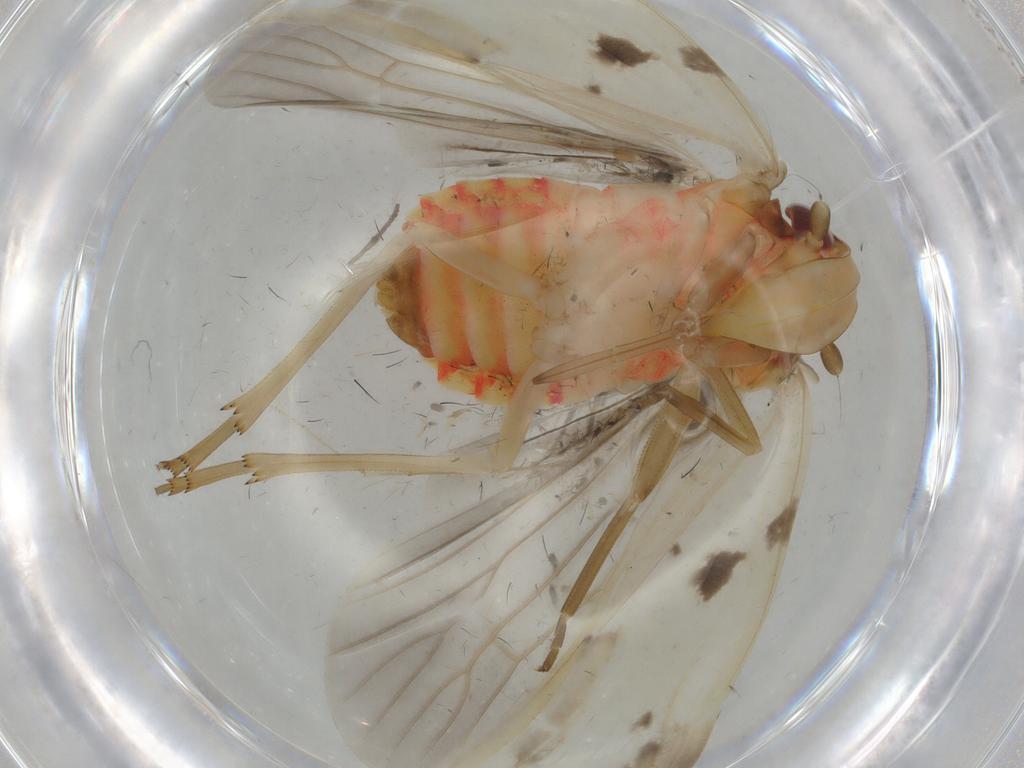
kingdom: Animalia
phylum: Arthropoda
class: Insecta
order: Hemiptera
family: Achilidae
